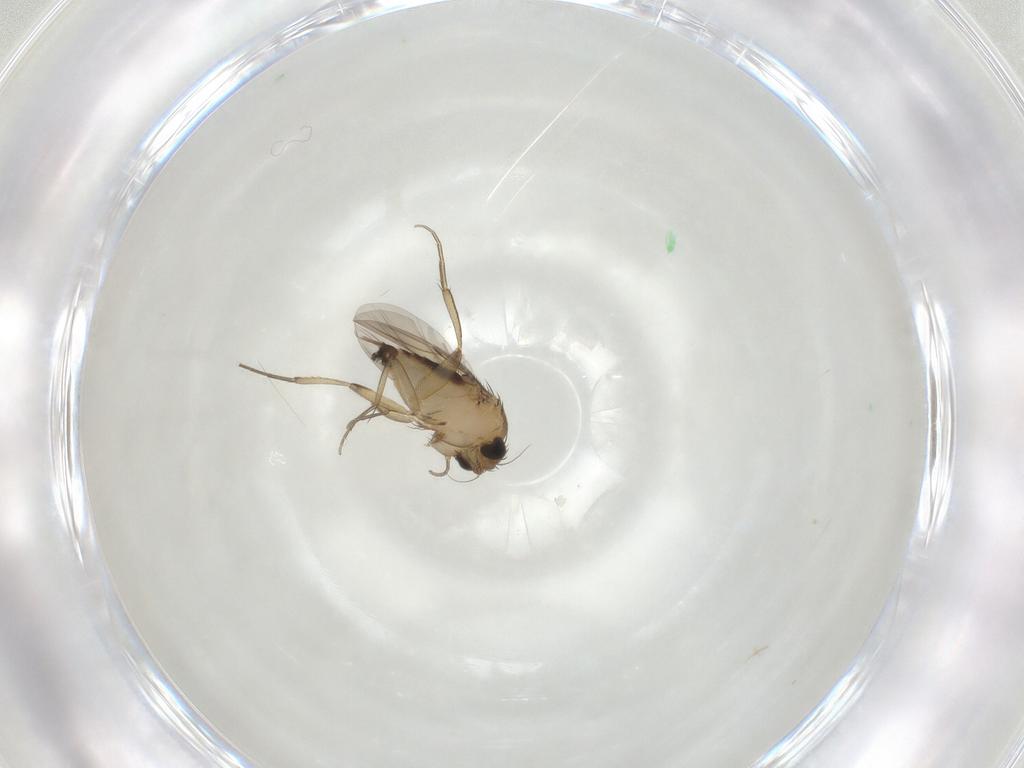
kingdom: Animalia
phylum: Arthropoda
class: Insecta
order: Diptera
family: Phoridae
